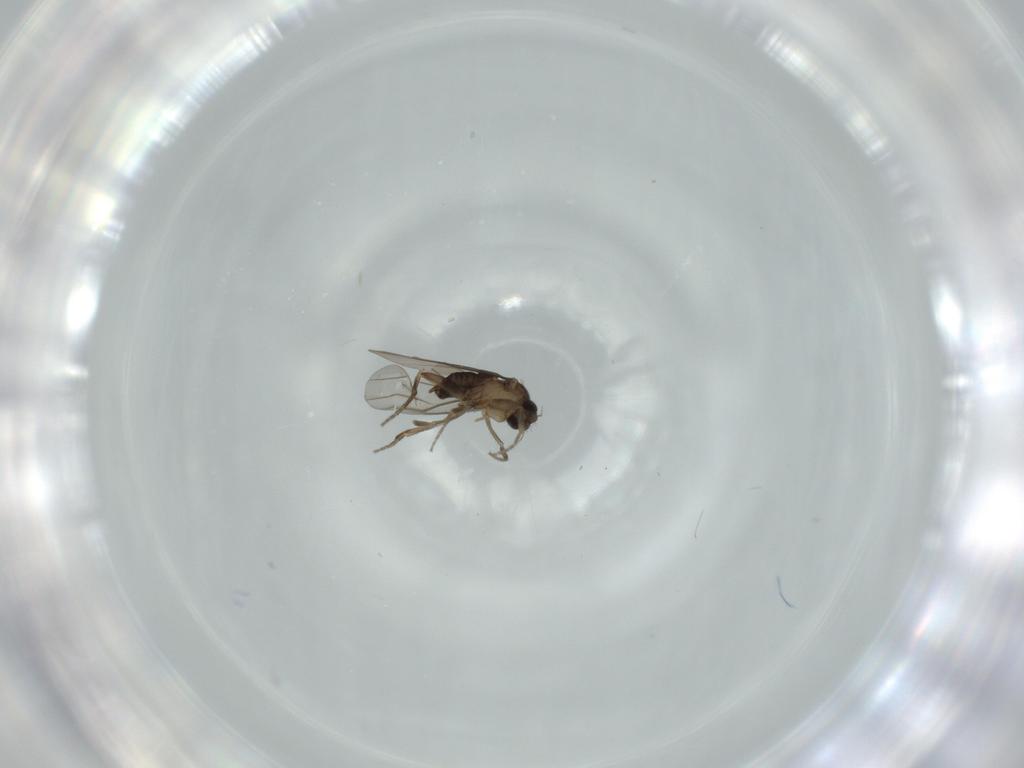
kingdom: Animalia
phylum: Arthropoda
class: Insecta
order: Diptera
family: Phoridae
